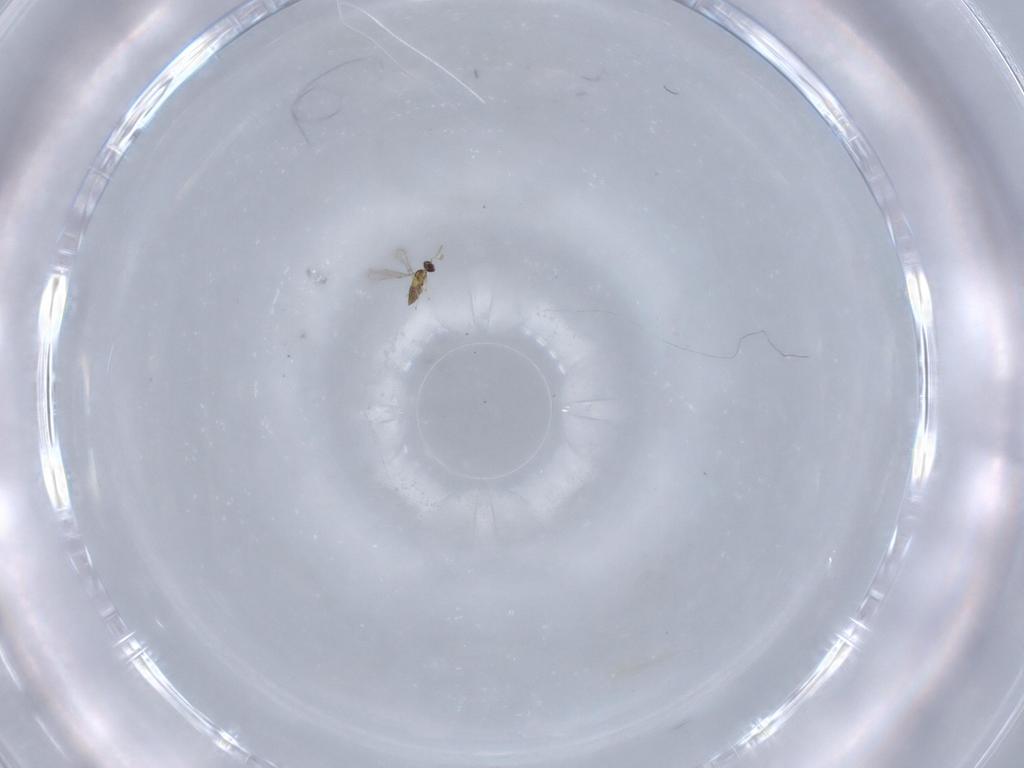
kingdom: Animalia
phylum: Arthropoda
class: Insecta
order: Hymenoptera
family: Mymaridae
